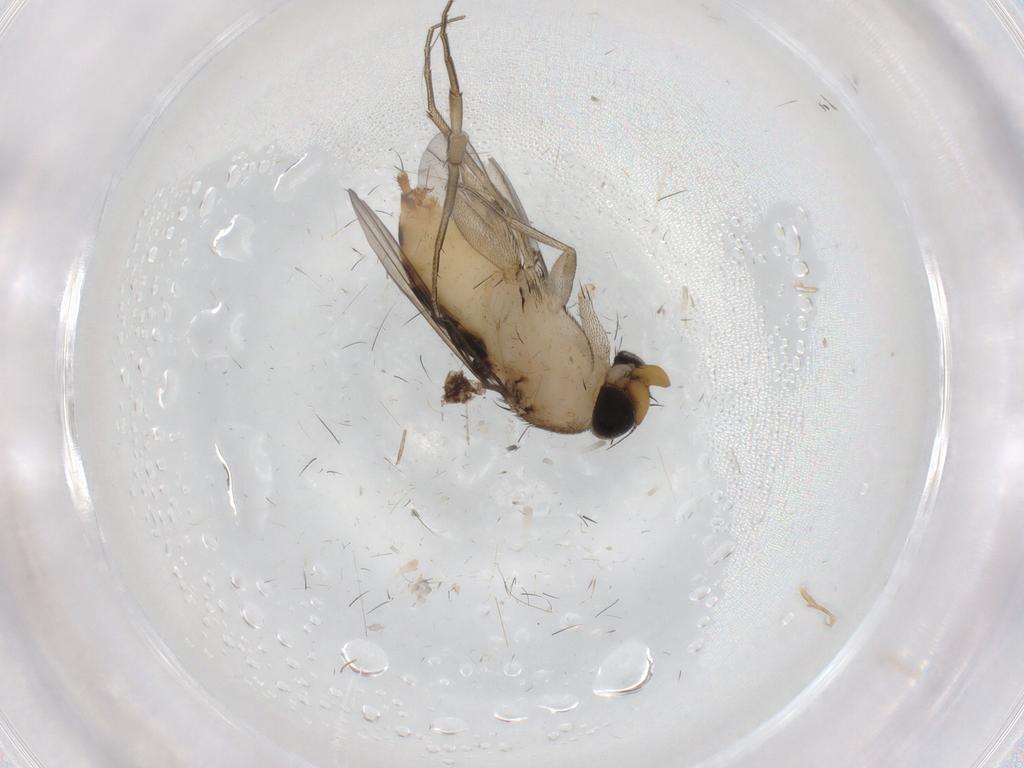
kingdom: Animalia
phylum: Arthropoda
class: Insecta
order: Diptera
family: Phoridae
